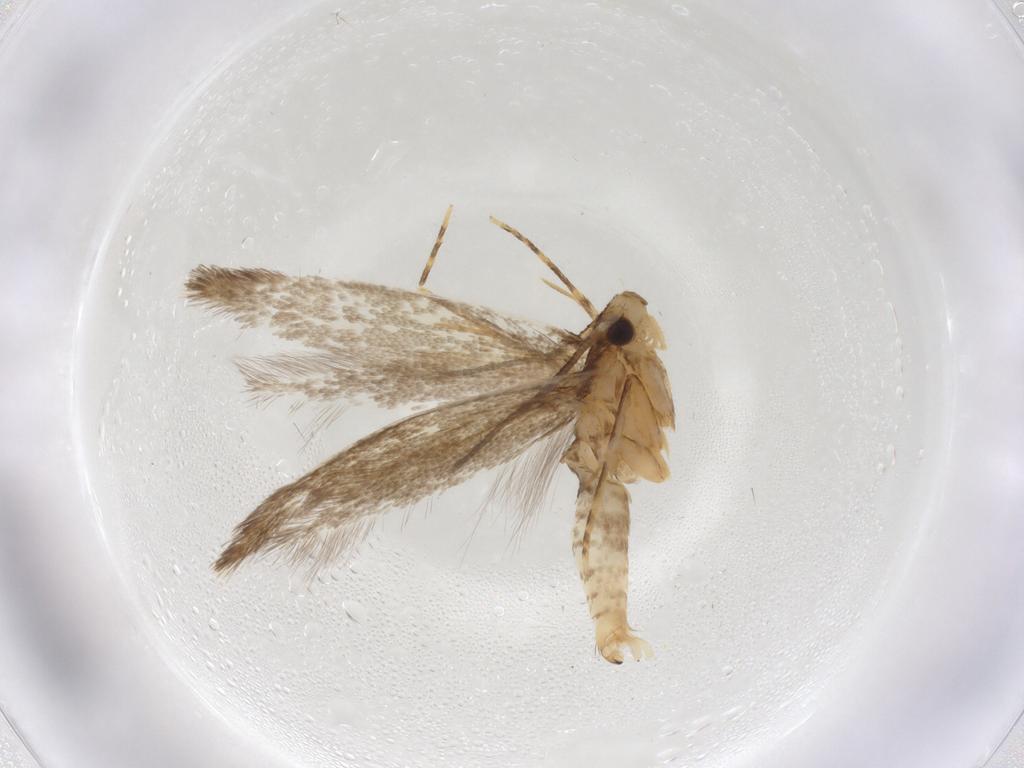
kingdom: Animalia
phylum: Arthropoda
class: Insecta
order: Lepidoptera
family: Tineidae
